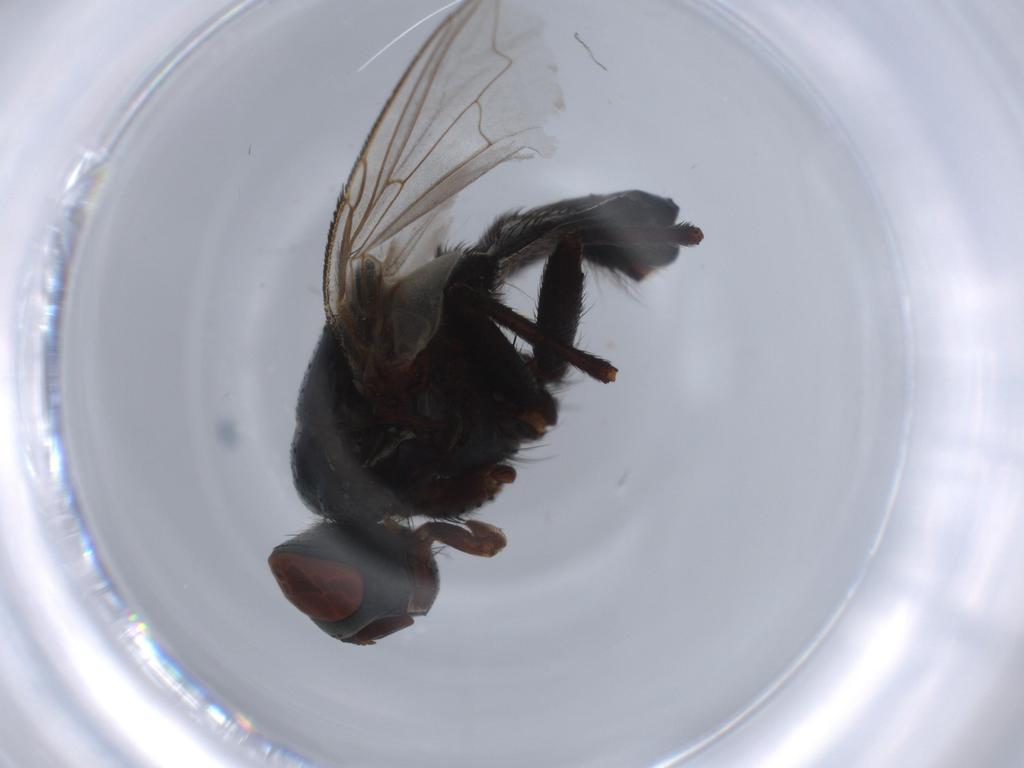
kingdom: Animalia
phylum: Arthropoda
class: Insecta
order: Diptera
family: Sarcophagidae
